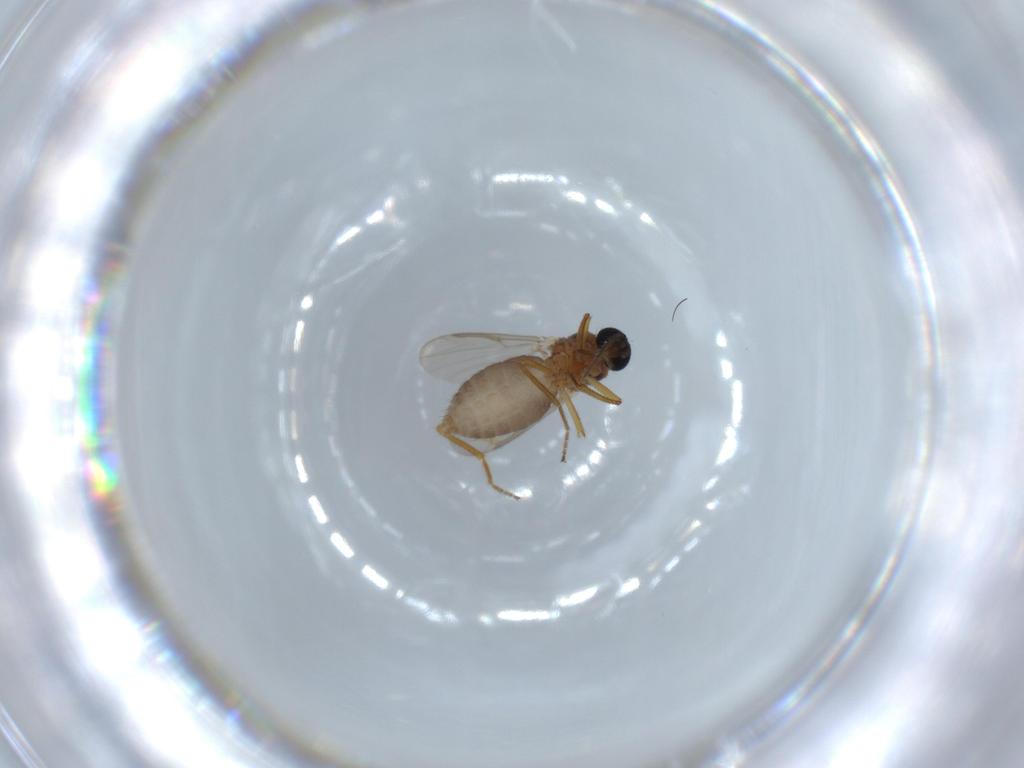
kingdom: Animalia
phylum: Arthropoda
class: Insecta
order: Diptera
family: Ceratopogonidae
